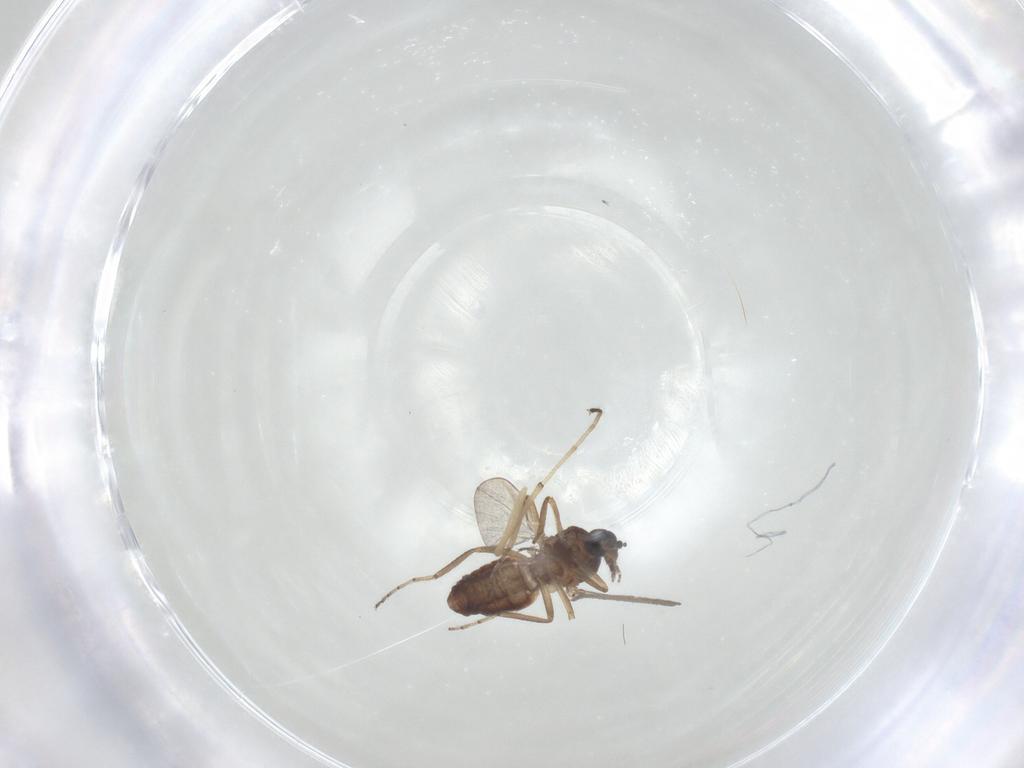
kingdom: Animalia
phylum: Arthropoda
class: Insecta
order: Diptera
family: Ceratopogonidae
